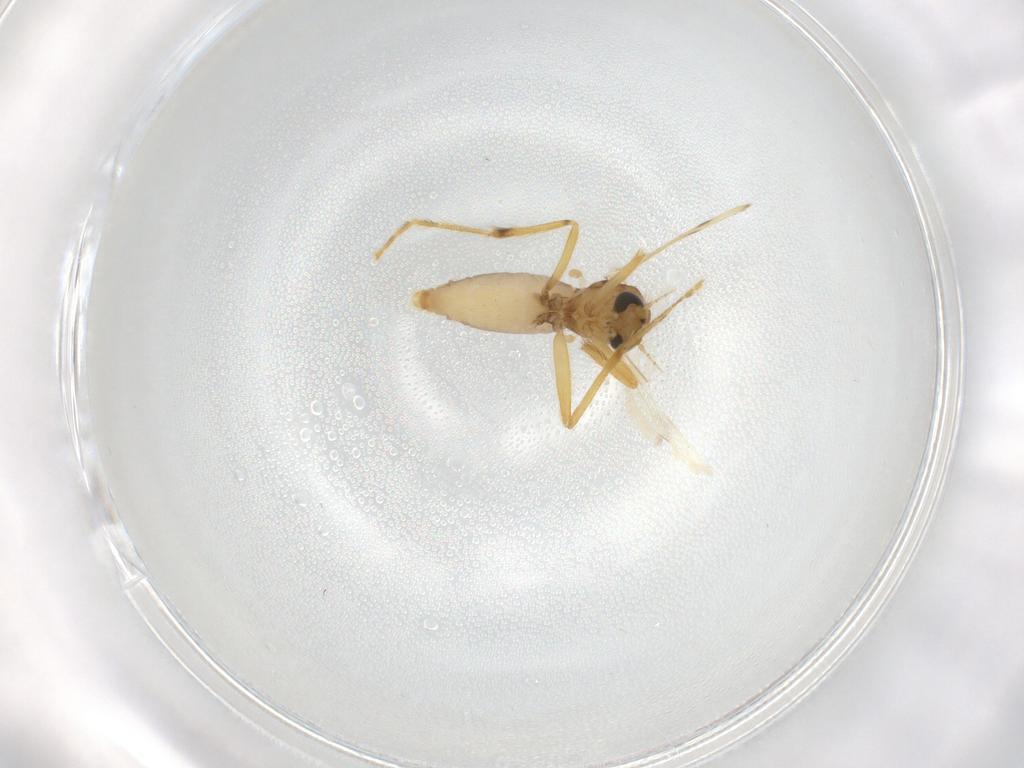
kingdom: Animalia
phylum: Arthropoda
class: Insecta
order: Diptera
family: Corethrellidae
